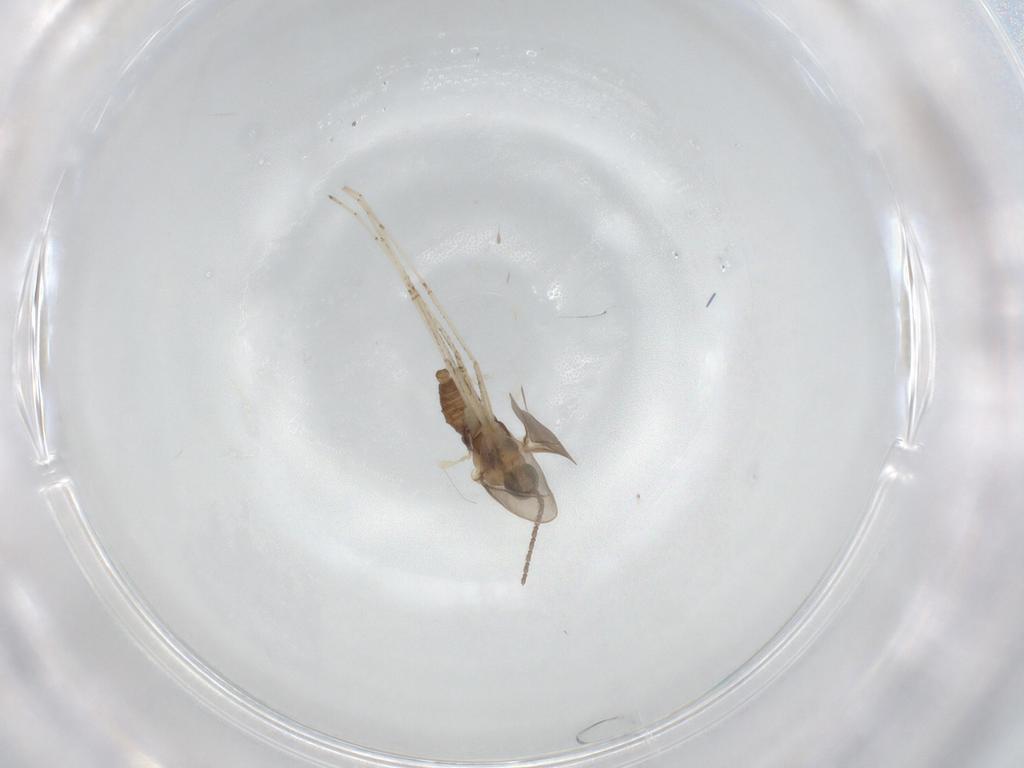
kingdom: Animalia
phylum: Arthropoda
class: Insecta
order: Diptera
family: Cecidomyiidae
